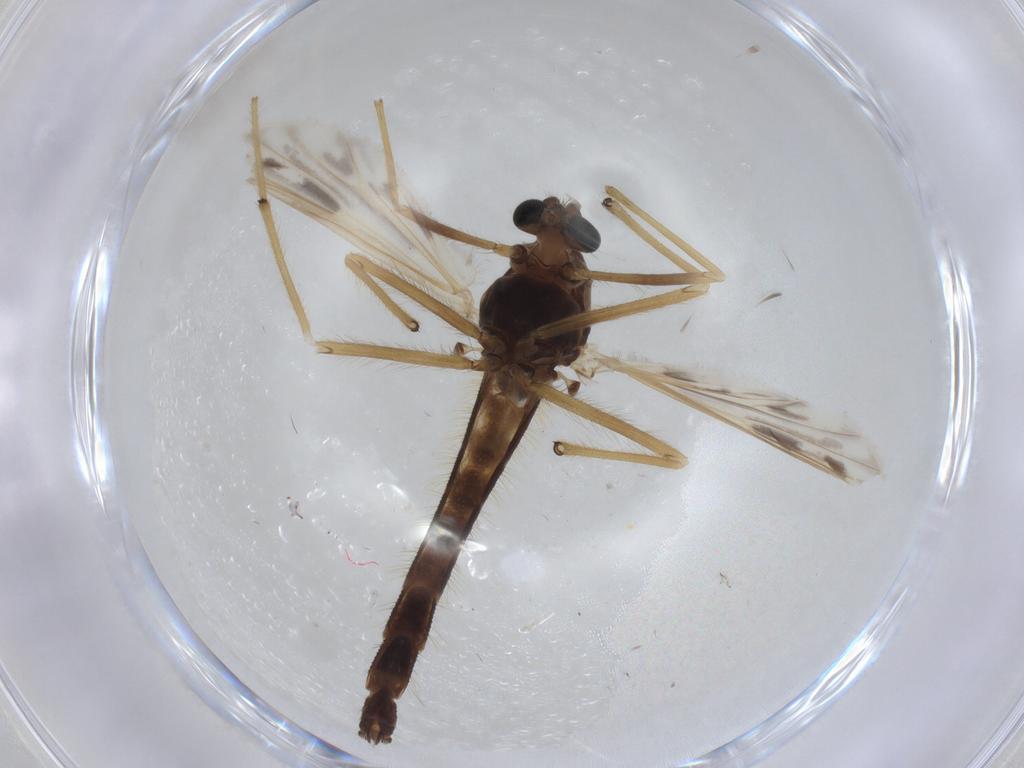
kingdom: Animalia
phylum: Arthropoda
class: Insecta
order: Diptera
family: Chironomidae
